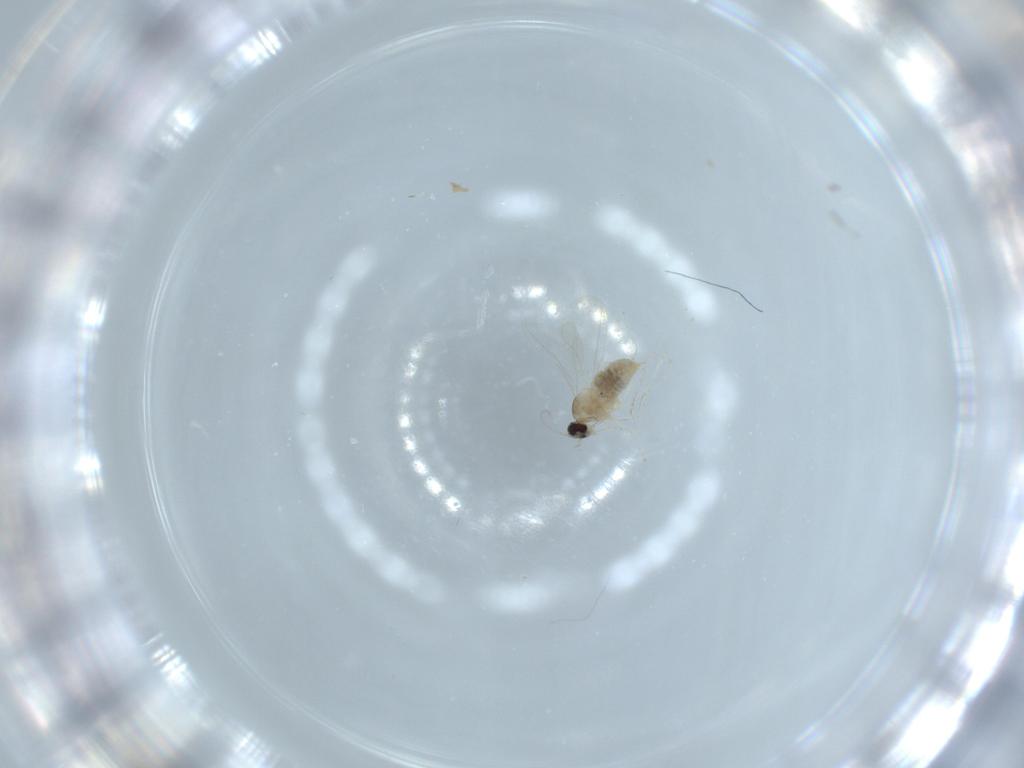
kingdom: Animalia
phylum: Arthropoda
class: Insecta
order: Diptera
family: Cecidomyiidae
